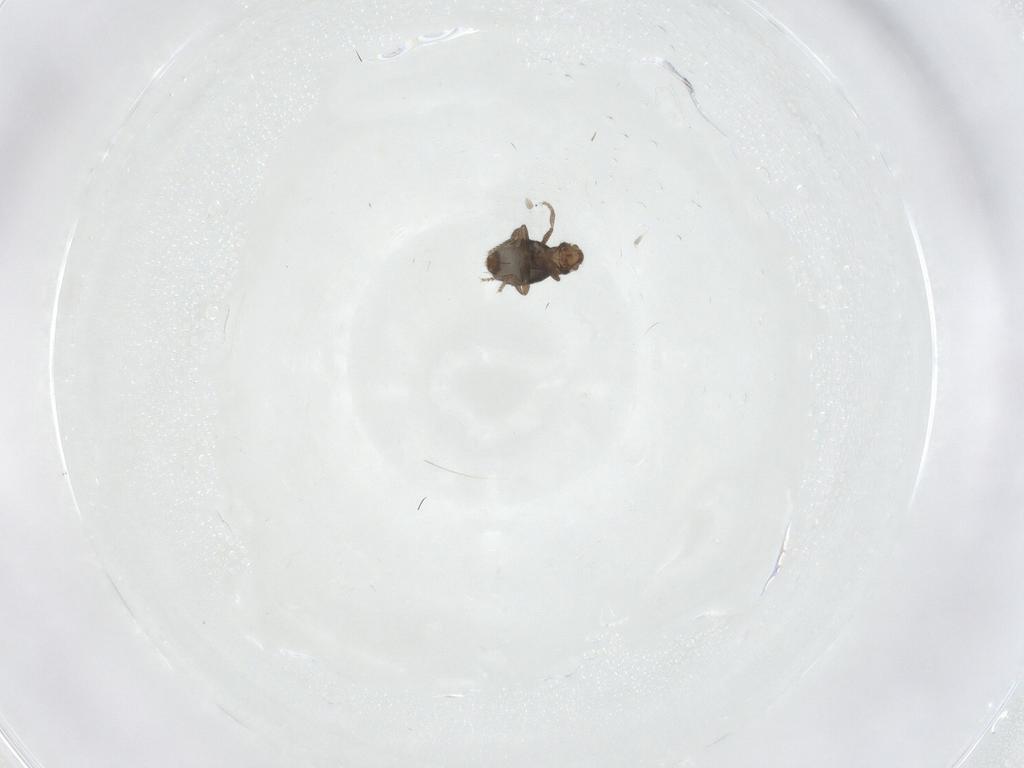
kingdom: Animalia
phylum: Arthropoda
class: Insecta
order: Diptera
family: Phoridae
